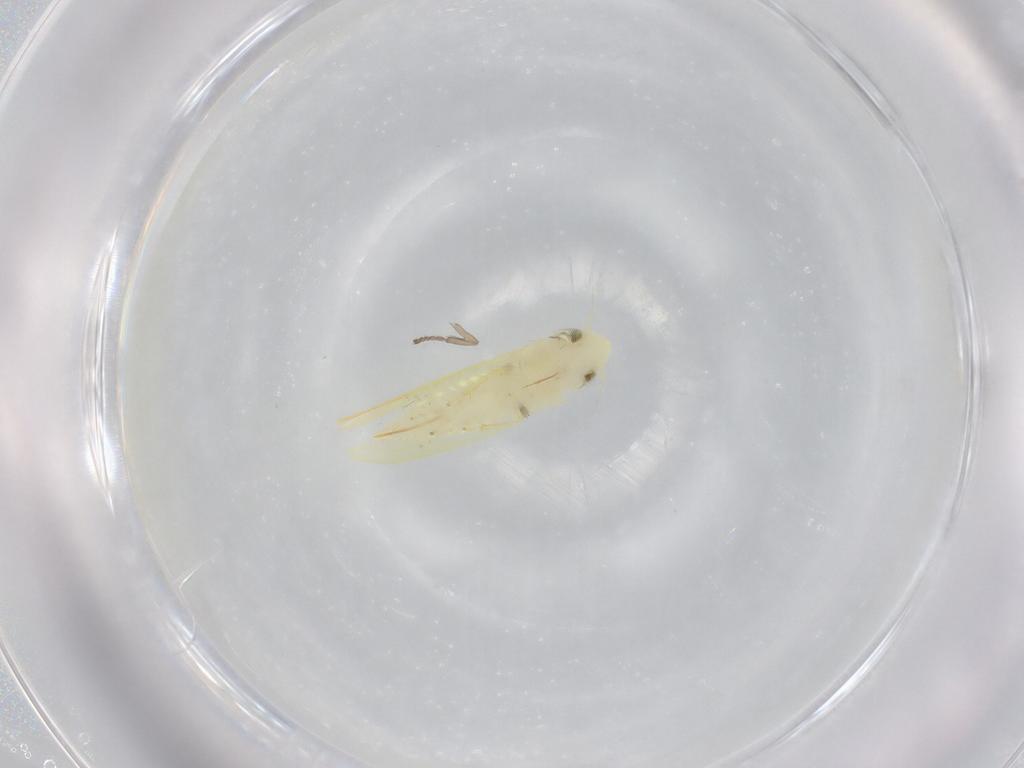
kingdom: Animalia
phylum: Arthropoda
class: Insecta
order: Hemiptera
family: Cicadellidae
